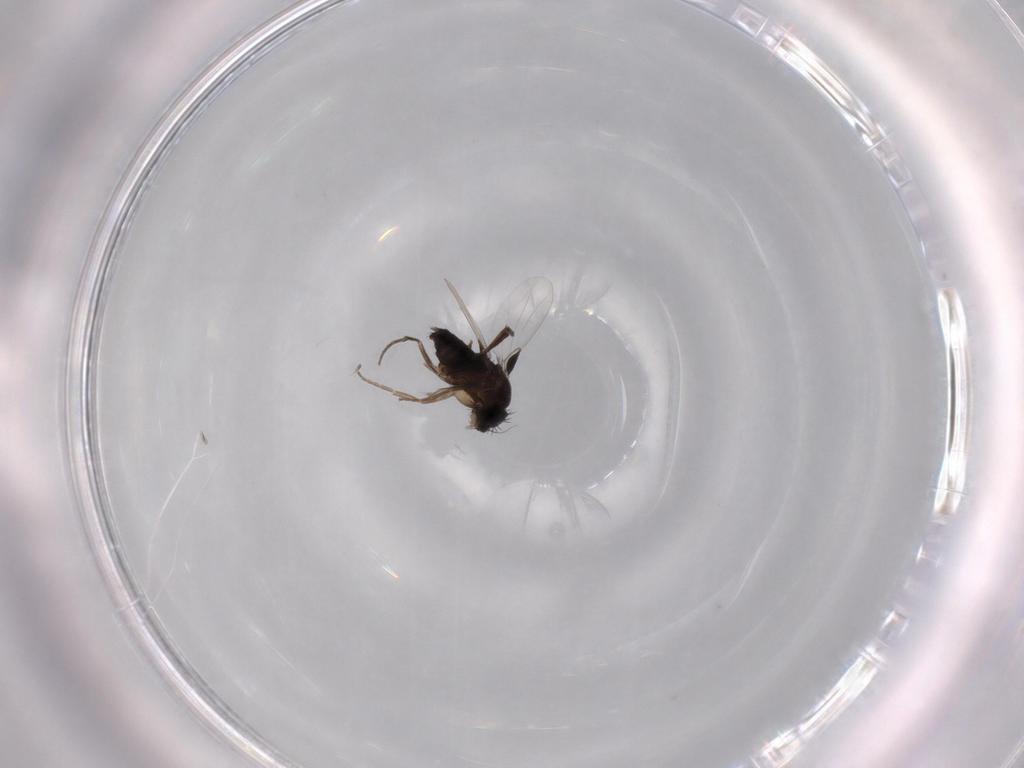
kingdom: Animalia
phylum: Arthropoda
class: Insecta
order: Diptera
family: Phoridae
